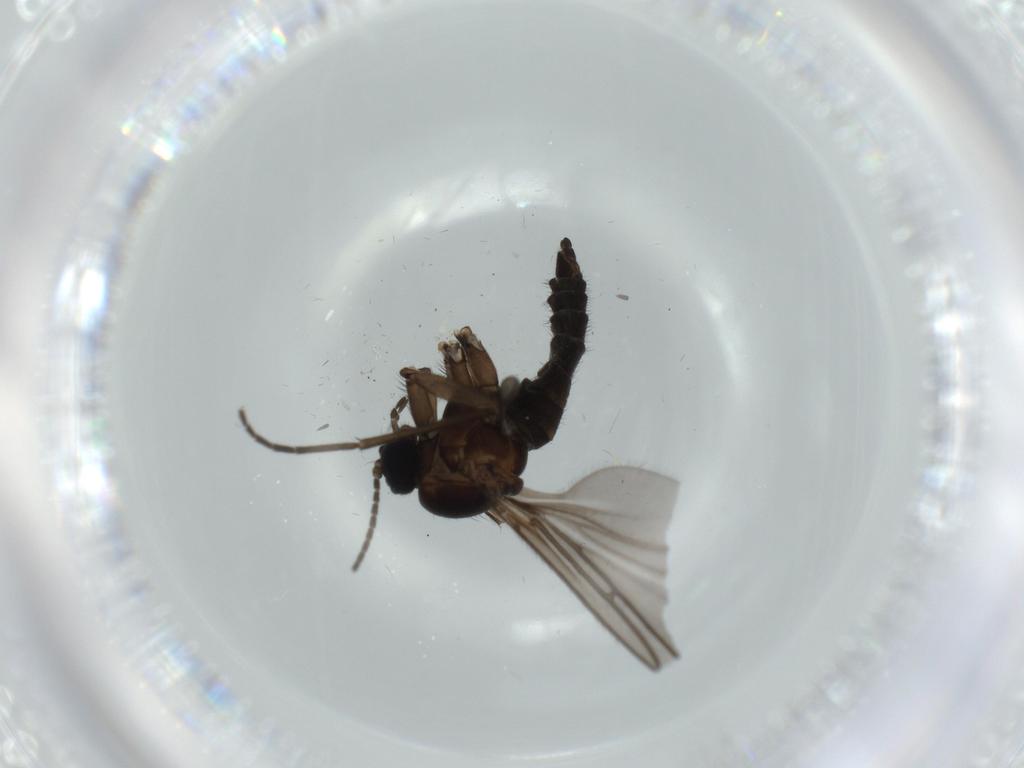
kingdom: Animalia
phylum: Arthropoda
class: Insecta
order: Diptera
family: Sciaridae
